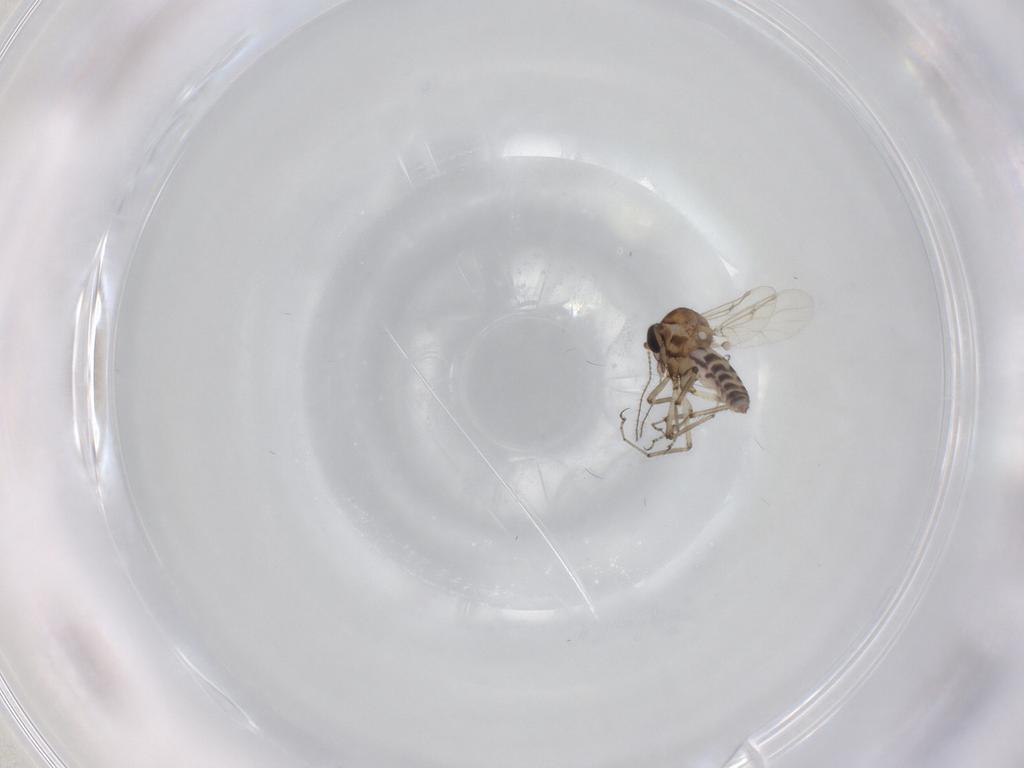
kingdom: Animalia
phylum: Arthropoda
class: Insecta
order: Diptera
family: Ceratopogonidae
